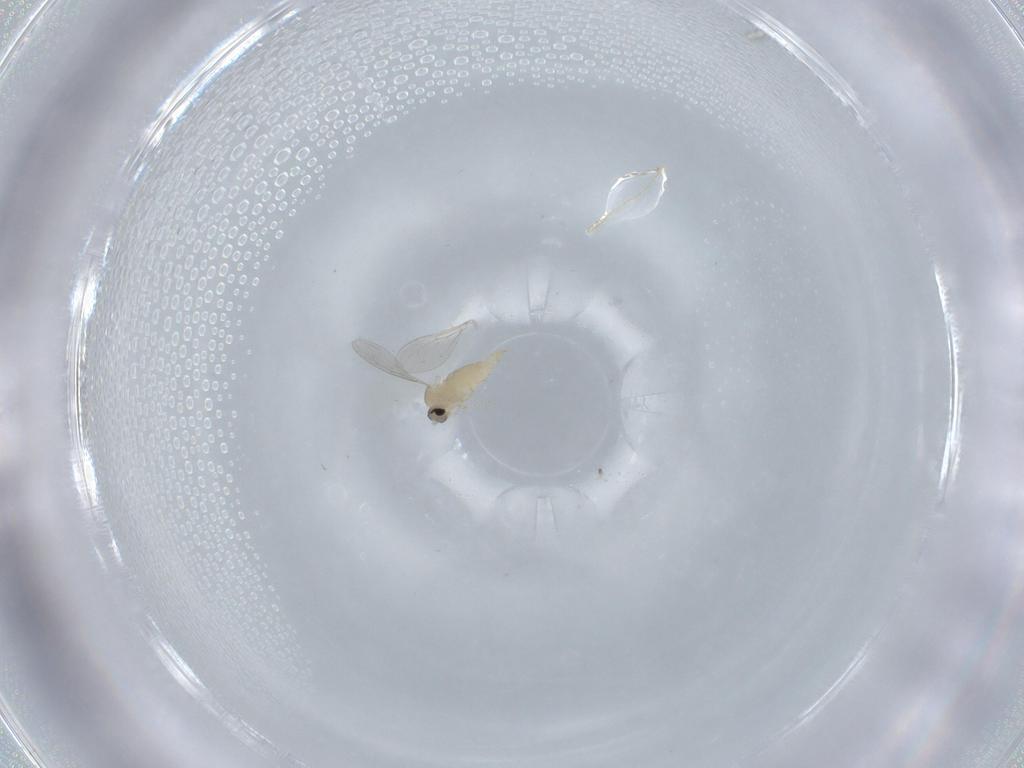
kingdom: Animalia
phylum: Arthropoda
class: Insecta
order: Diptera
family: Cecidomyiidae
